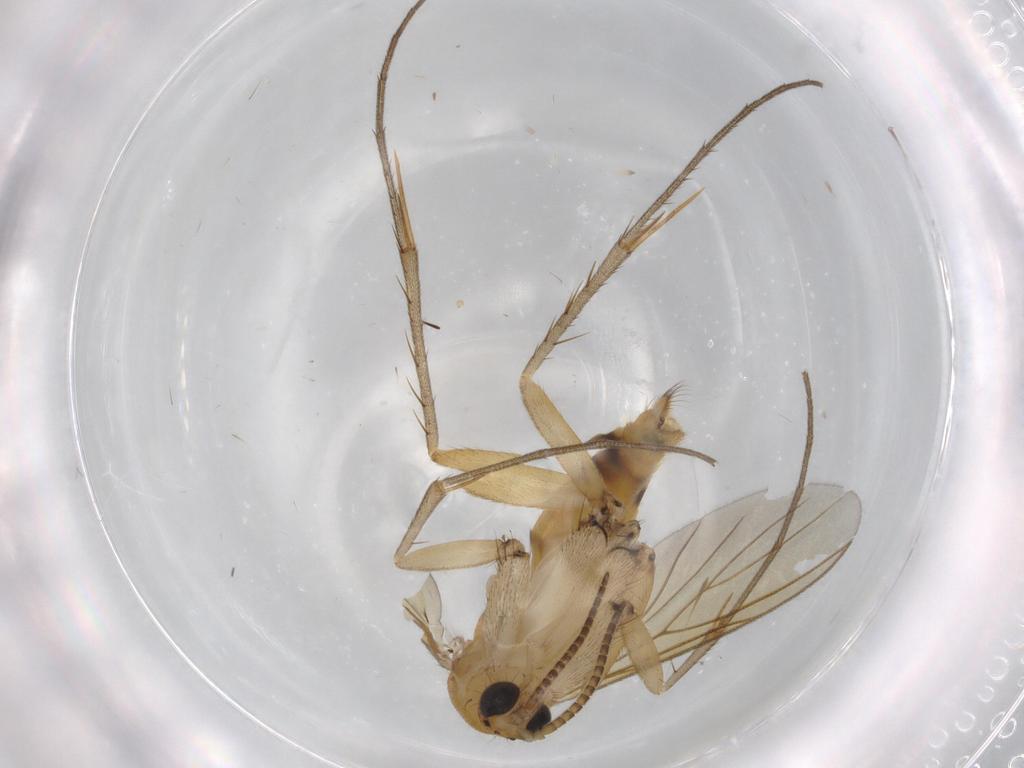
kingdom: Animalia
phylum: Arthropoda
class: Insecta
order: Diptera
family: Mycetophilidae
